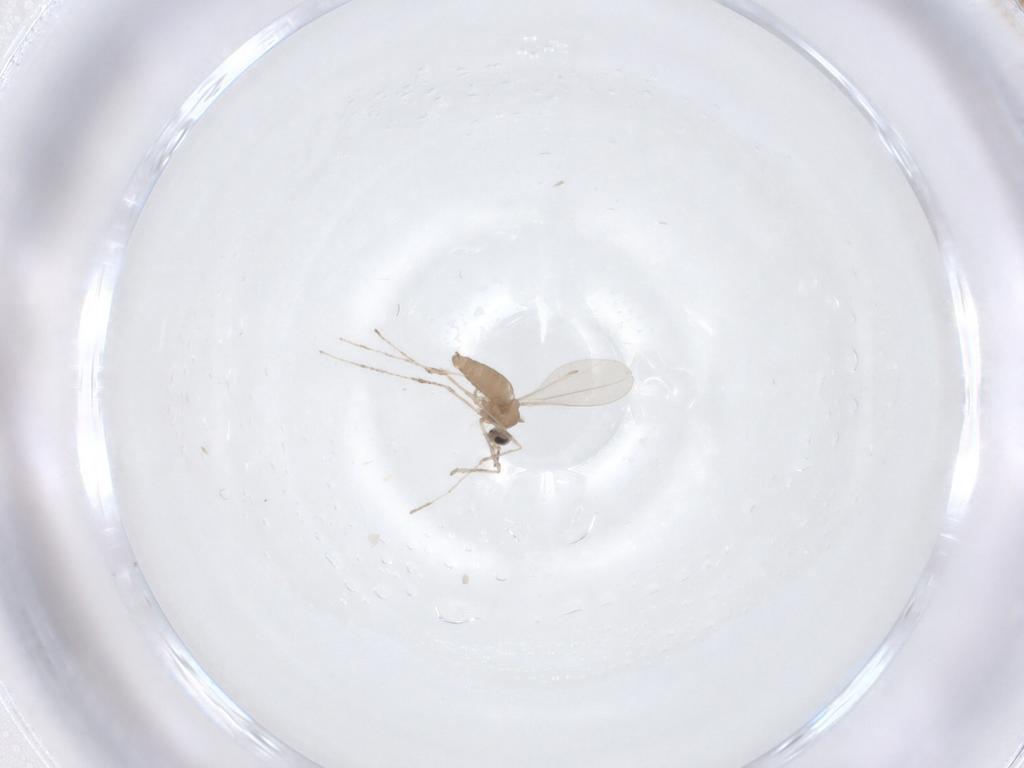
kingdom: Animalia
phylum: Arthropoda
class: Insecta
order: Diptera
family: Cecidomyiidae
